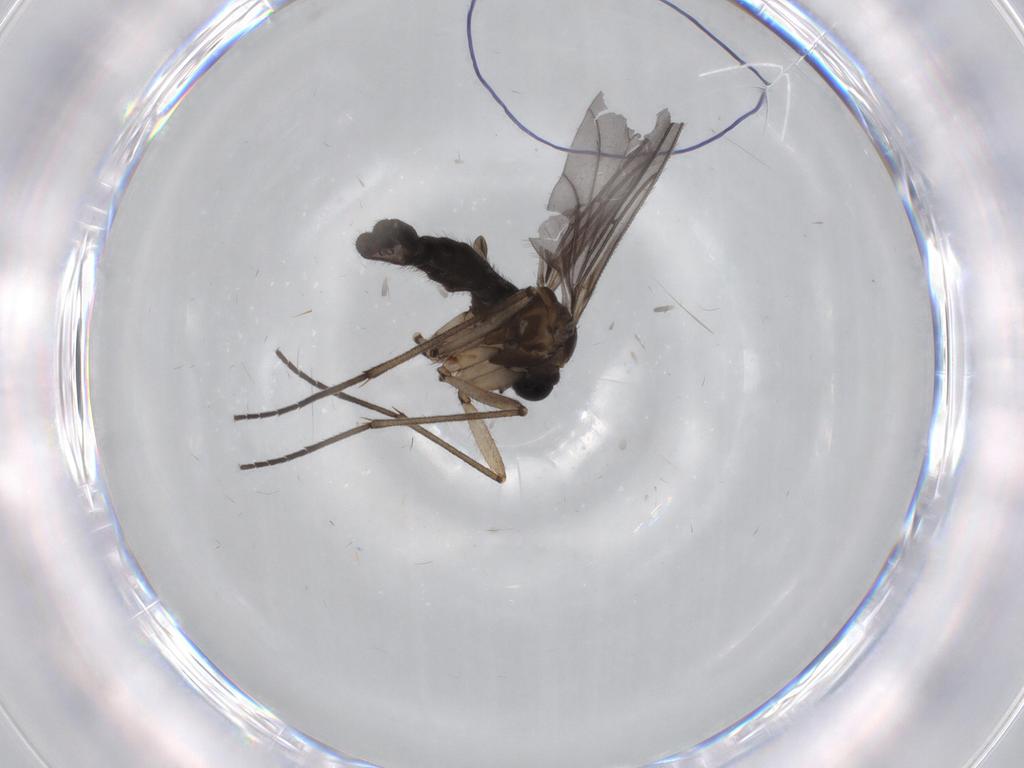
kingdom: Animalia
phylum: Arthropoda
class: Insecta
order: Diptera
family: Sciaridae
